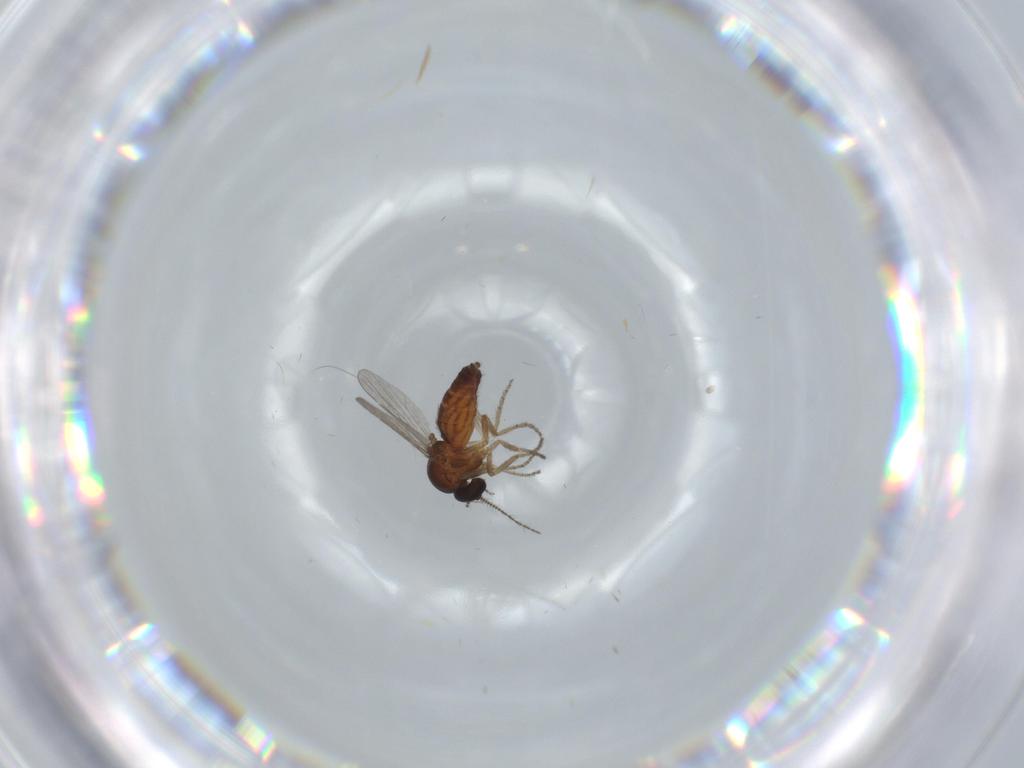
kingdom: Animalia
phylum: Arthropoda
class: Insecta
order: Diptera
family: Ceratopogonidae
